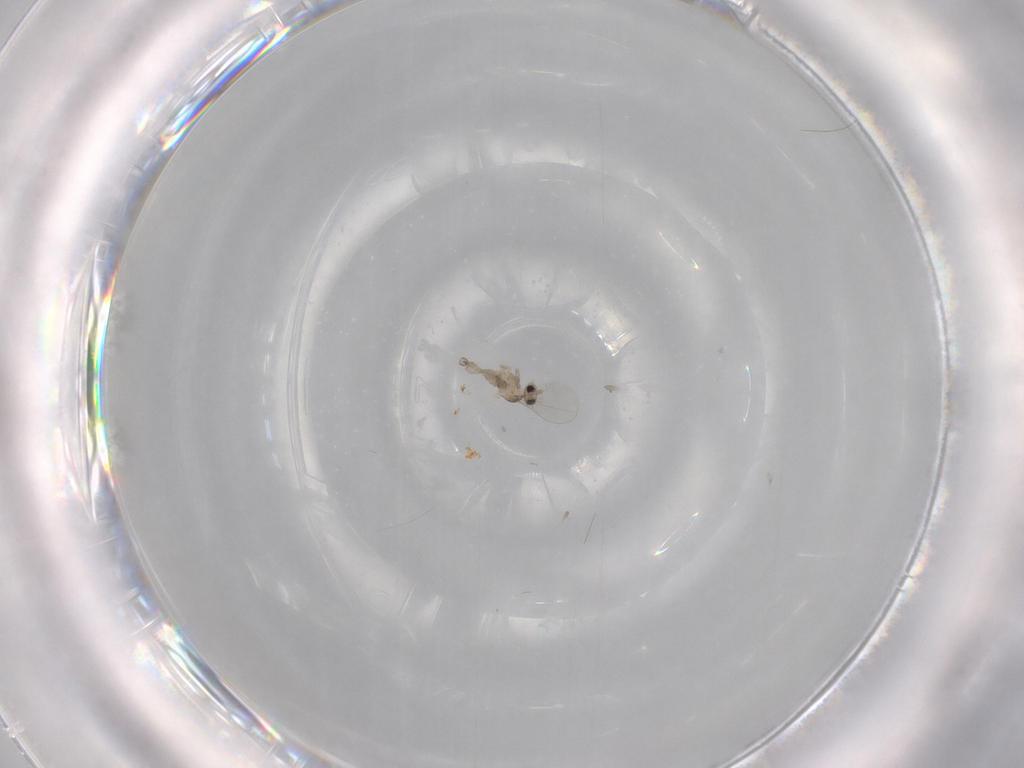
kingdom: Animalia
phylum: Arthropoda
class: Insecta
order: Diptera
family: Cecidomyiidae
